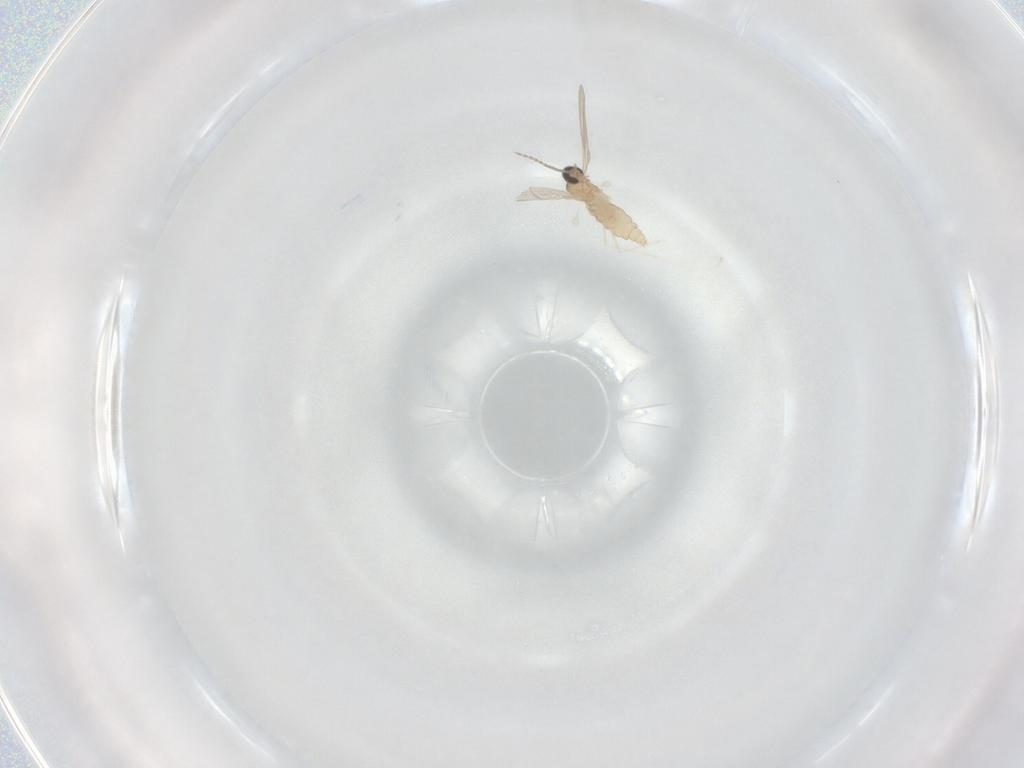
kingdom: Animalia
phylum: Arthropoda
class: Insecta
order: Diptera
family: Cecidomyiidae
